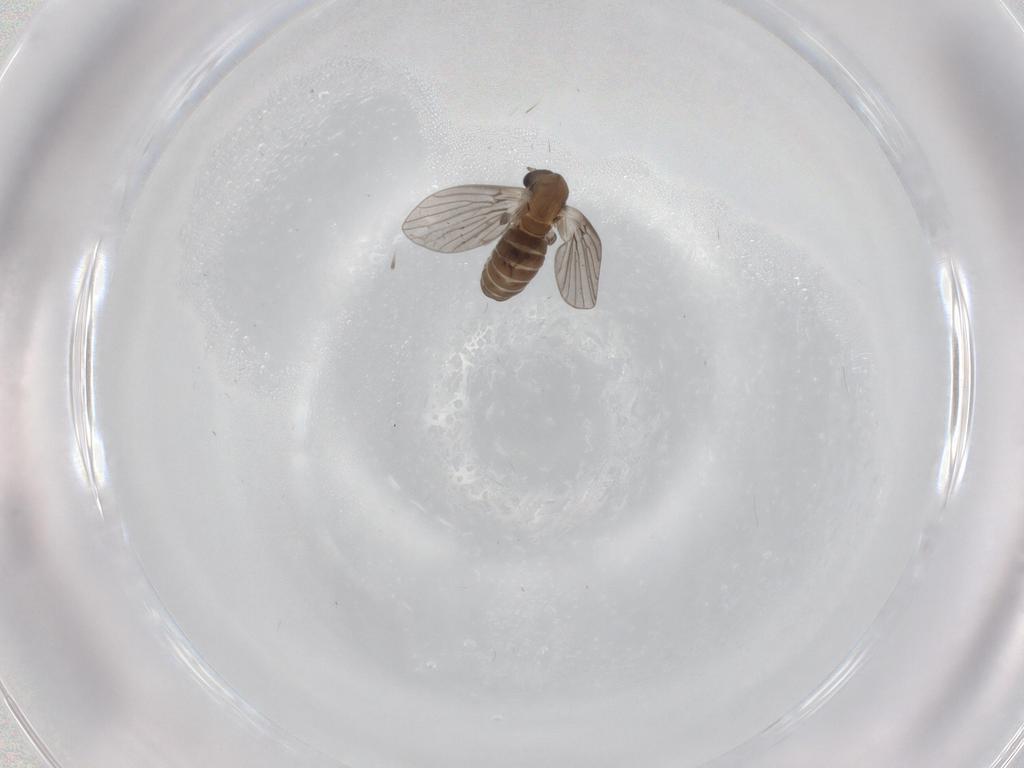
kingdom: Animalia
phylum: Arthropoda
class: Insecta
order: Diptera
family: Psychodidae
